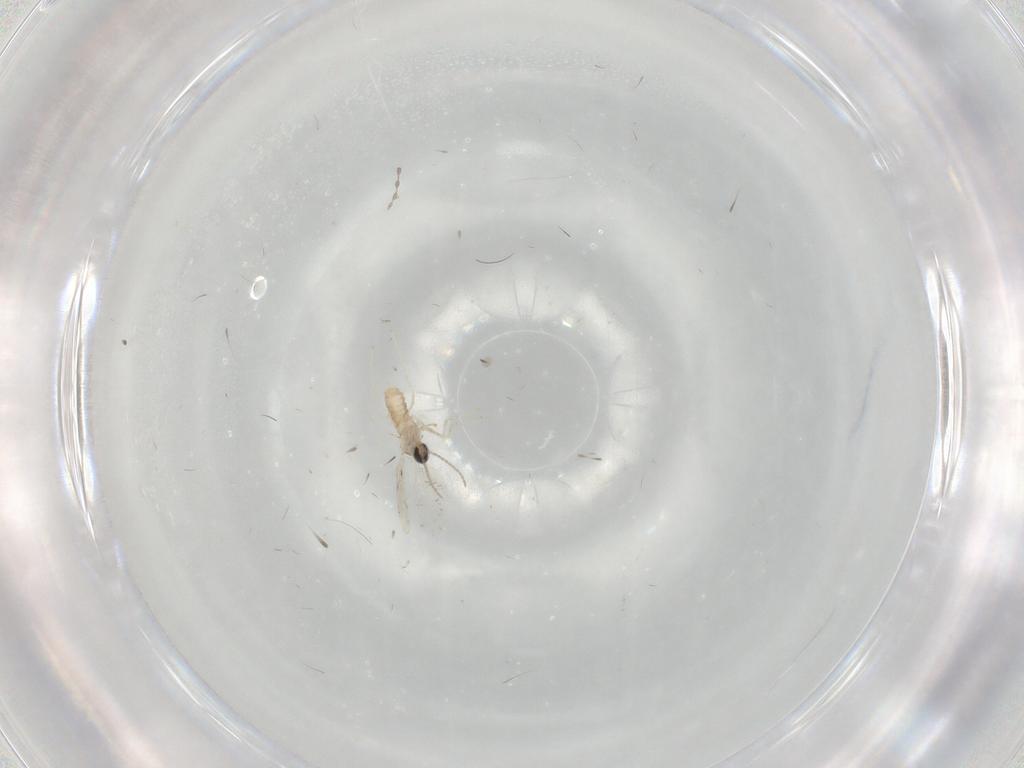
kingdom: Animalia
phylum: Arthropoda
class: Insecta
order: Diptera
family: Cecidomyiidae
